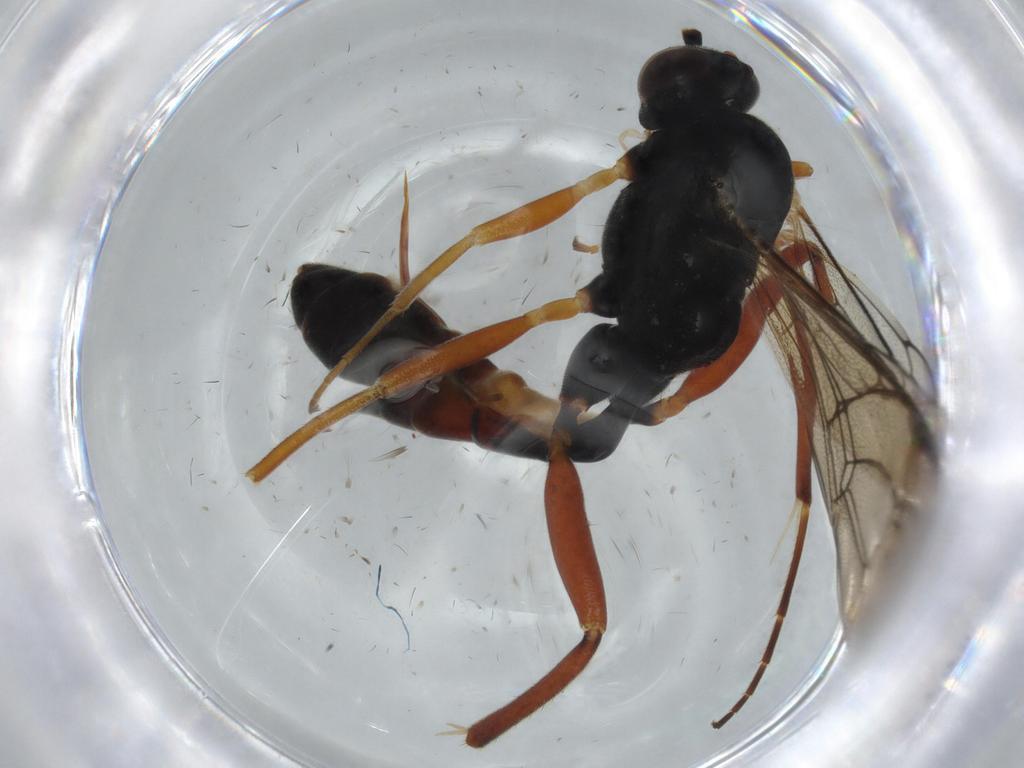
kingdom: Animalia
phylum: Arthropoda
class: Insecta
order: Hymenoptera
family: Ichneumonidae
